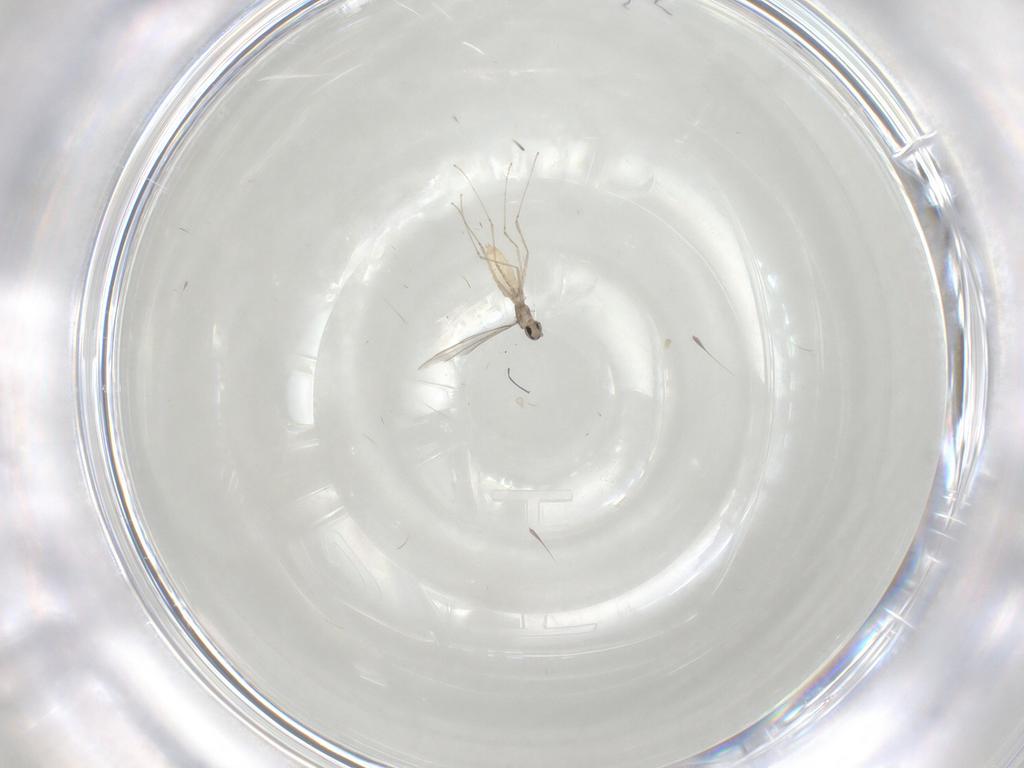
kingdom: Animalia
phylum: Arthropoda
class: Insecta
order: Diptera
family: Cecidomyiidae
